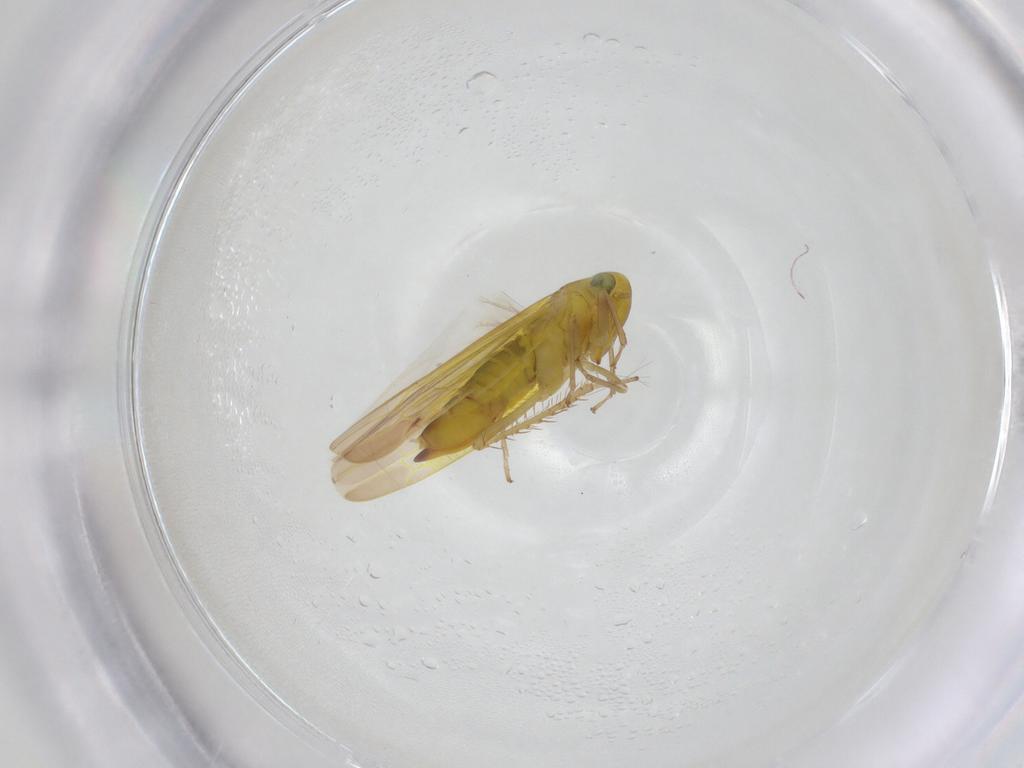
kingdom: Animalia
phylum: Arthropoda
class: Insecta
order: Hemiptera
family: Cicadellidae
